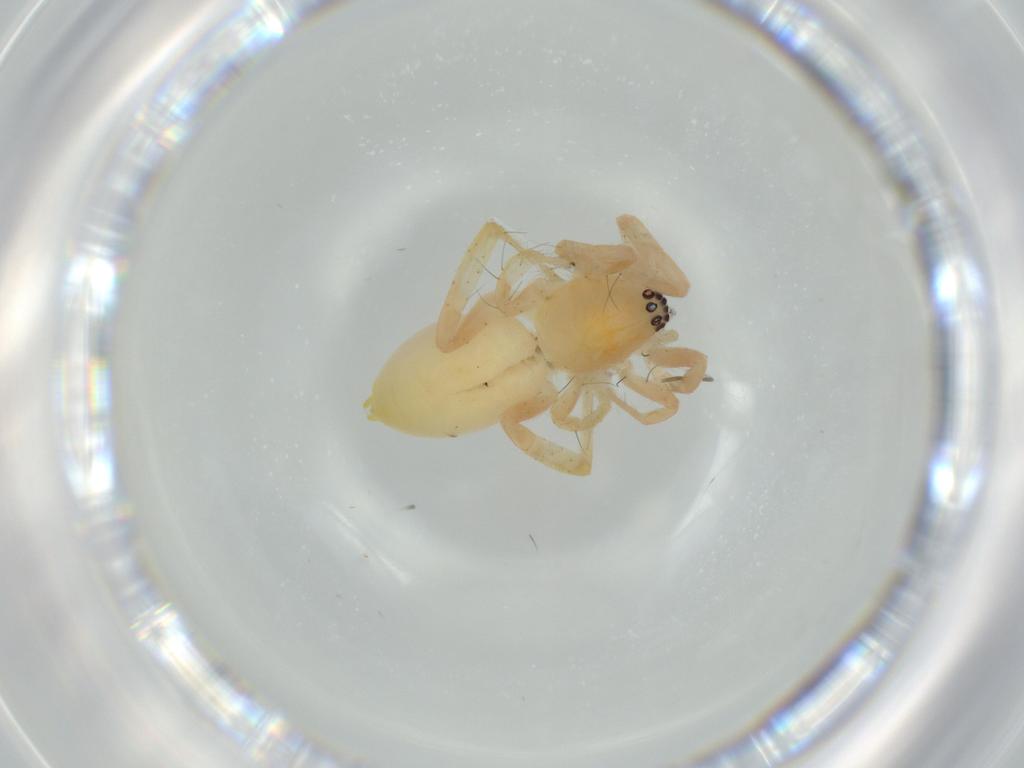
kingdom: Animalia
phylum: Arthropoda
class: Arachnida
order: Araneae
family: Anyphaenidae
